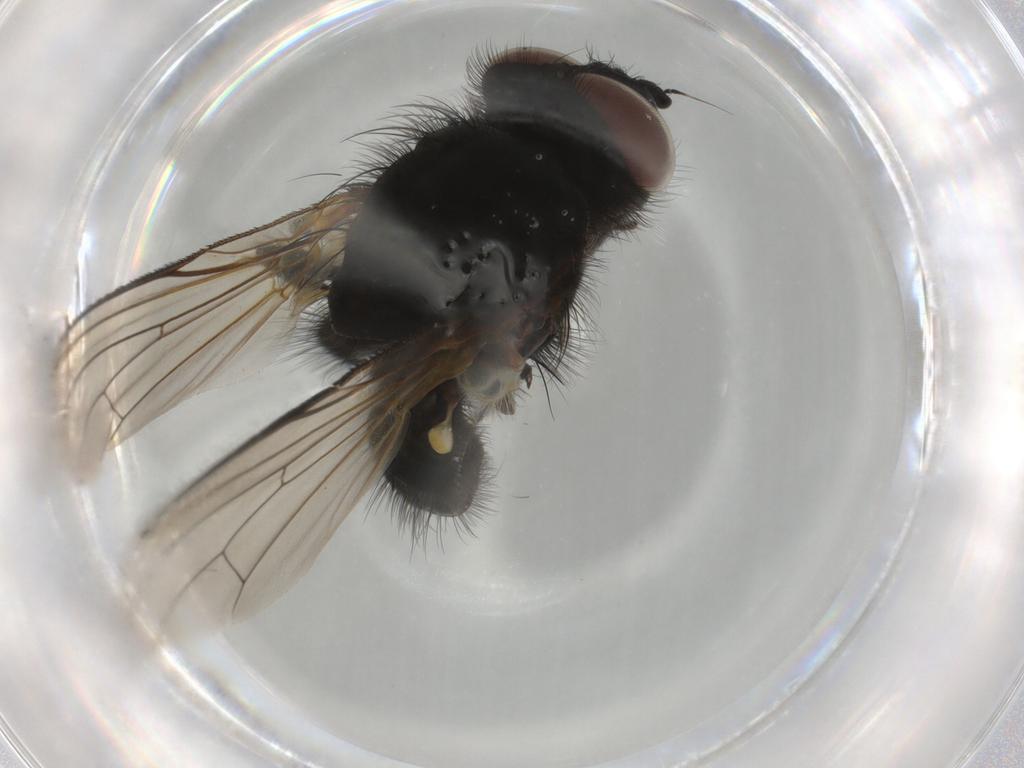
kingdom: Animalia
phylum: Arthropoda
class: Insecta
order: Diptera
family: Anthomyiidae
